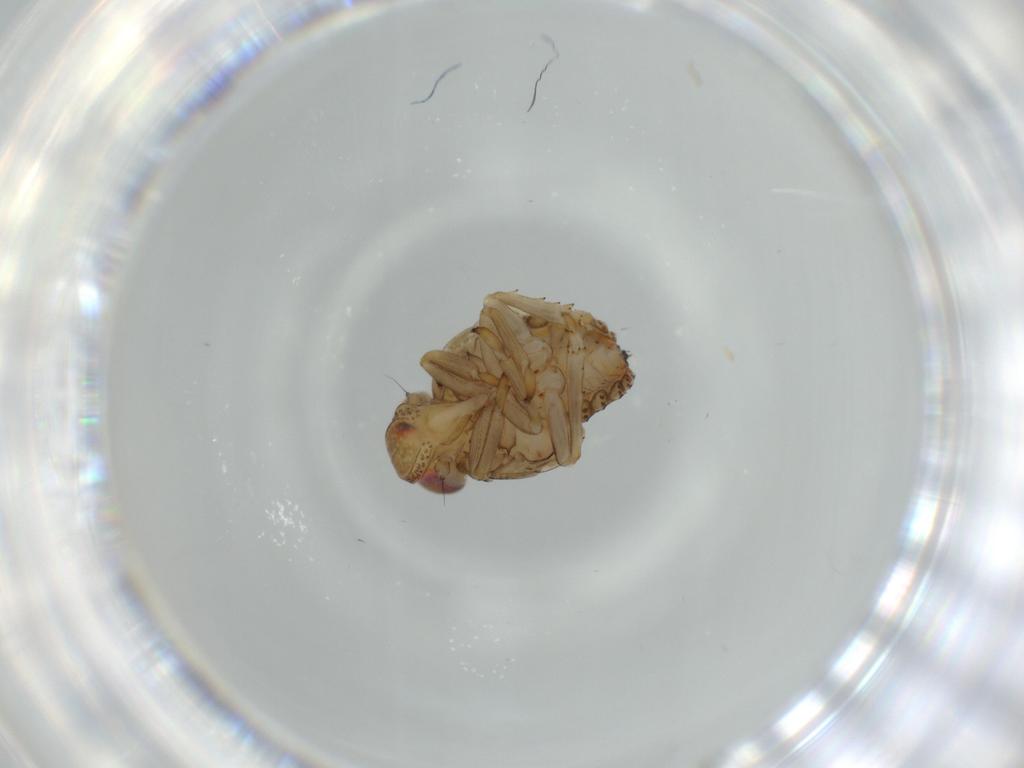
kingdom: Animalia
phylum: Arthropoda
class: Insecta
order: Hemiptera
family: Issidae
